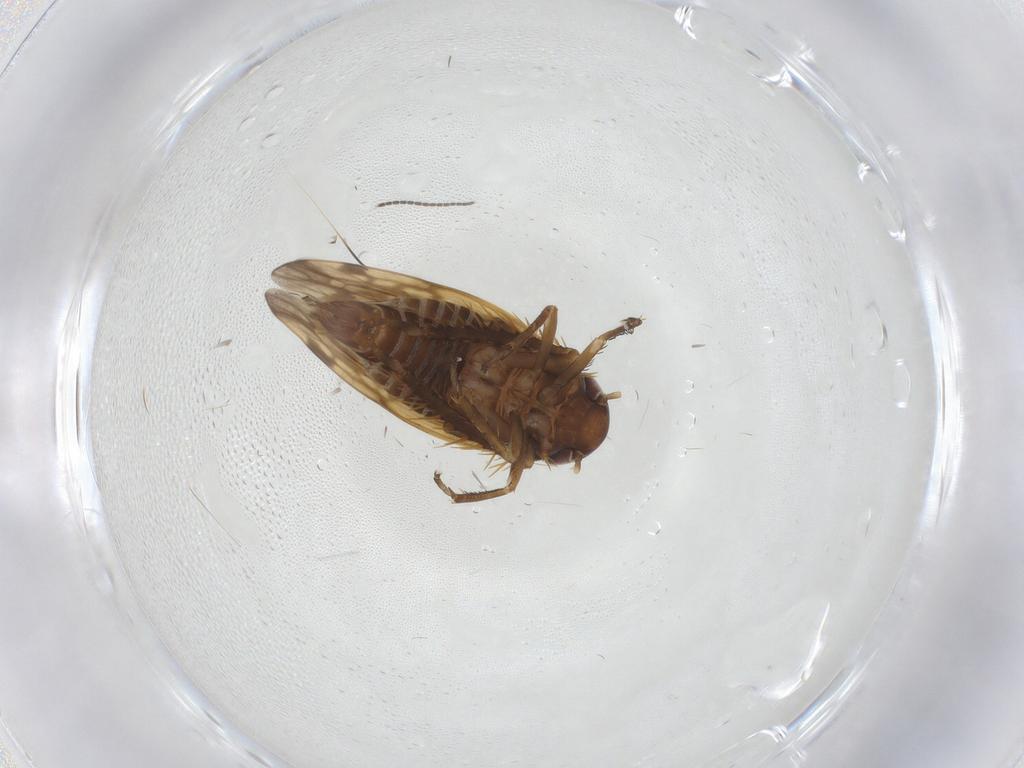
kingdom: Animalia
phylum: Arthropoda
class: Insecta
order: Hemiptera
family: Cicadellidae
